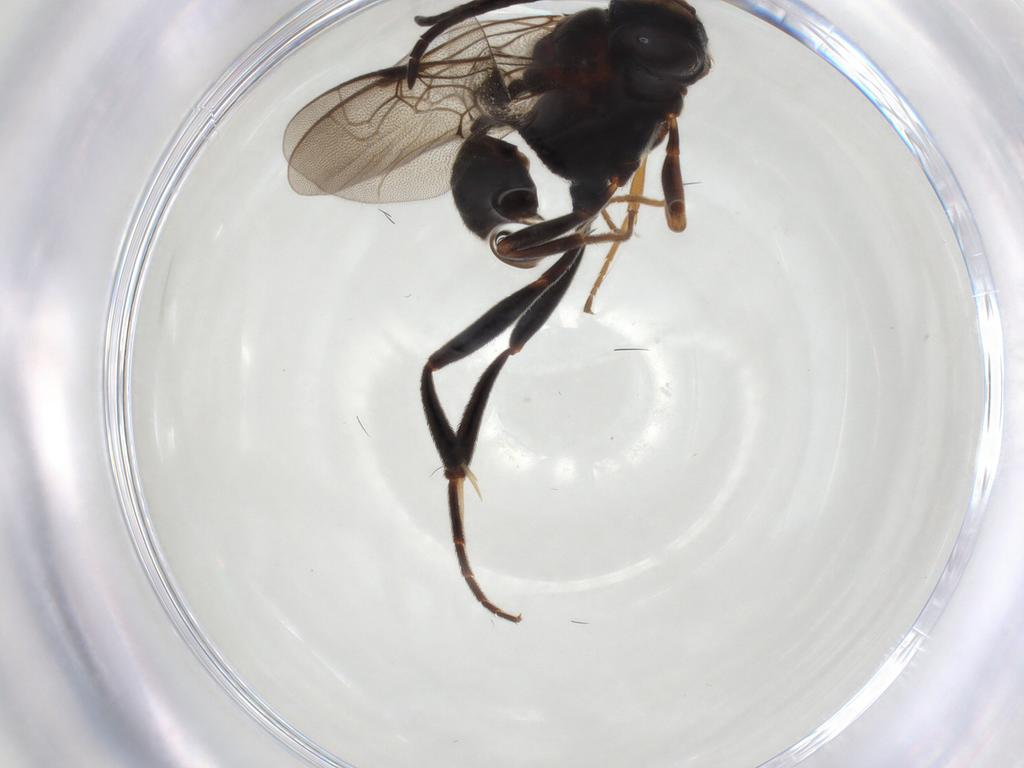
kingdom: Animalia
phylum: Arthropoda
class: Insecta
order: Hymenoptera
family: Evaniidae
